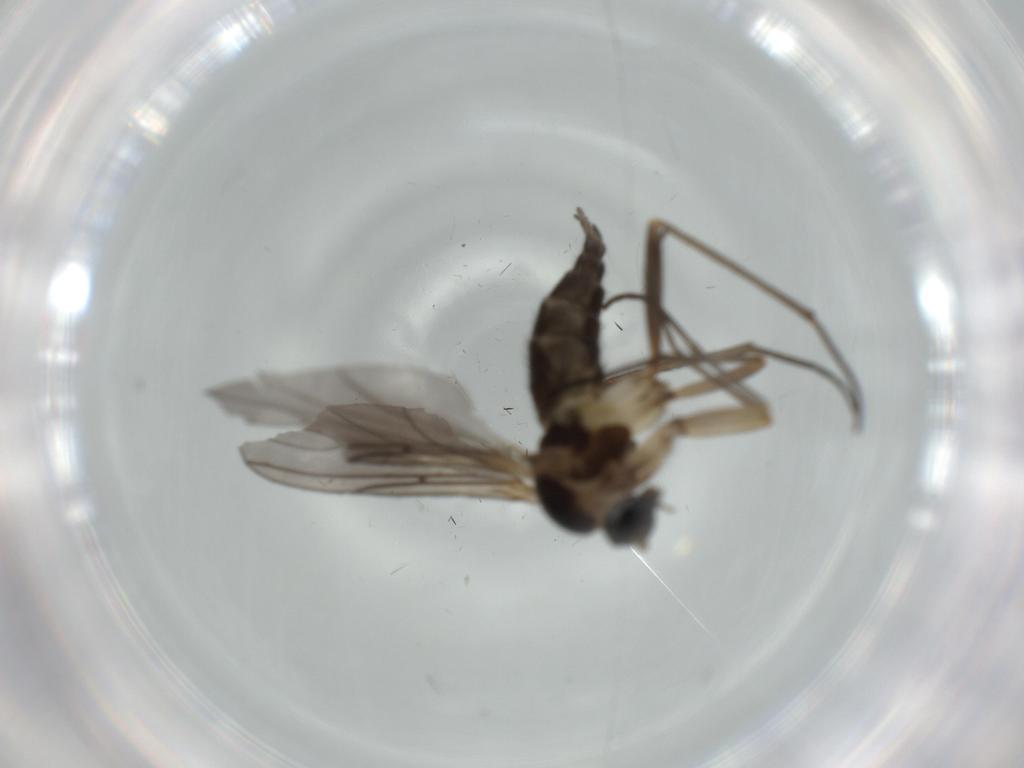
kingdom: Animalia
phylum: Arthropoda
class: Insecta
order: Diptera
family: Sciaridae
